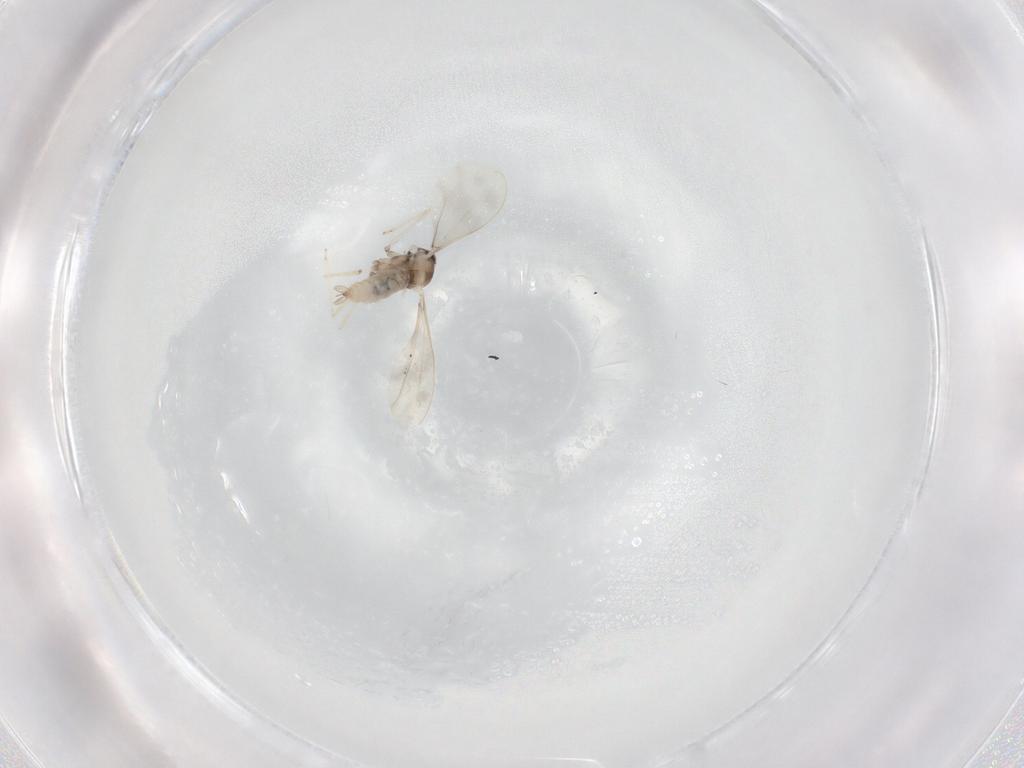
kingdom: Animalia
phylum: Arthropoda
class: Insecta
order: Diptera
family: Cecidomyiidae
